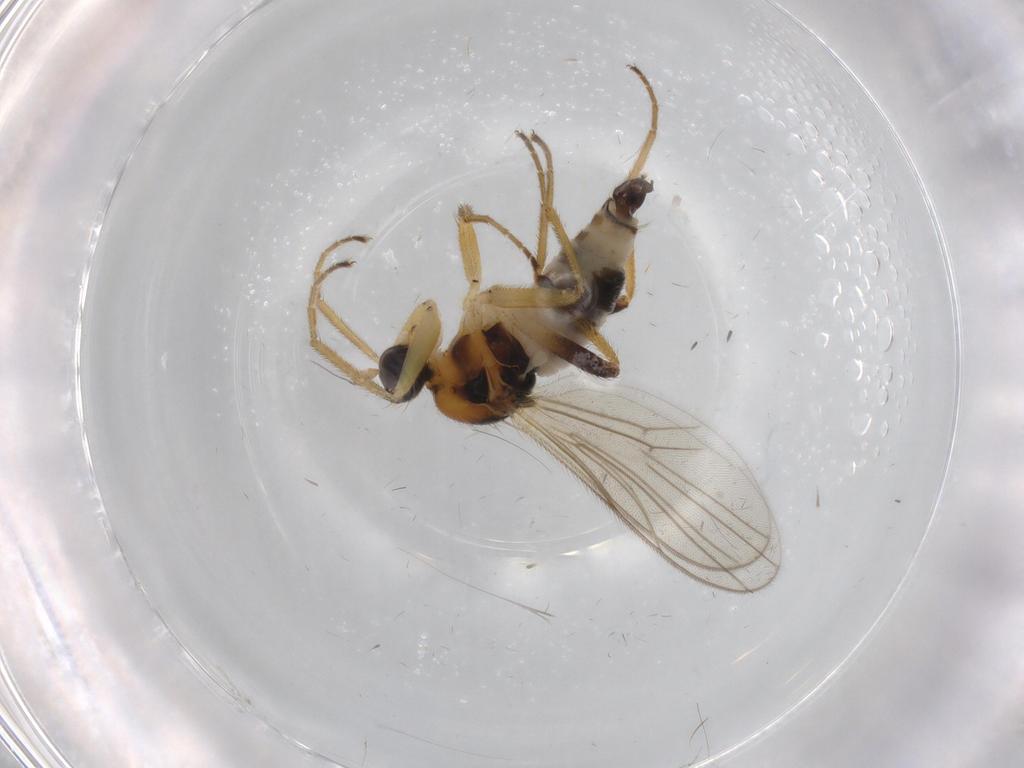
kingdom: Animalia
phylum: Arthropoda
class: Insecta
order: Diptera
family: Hybotidae
